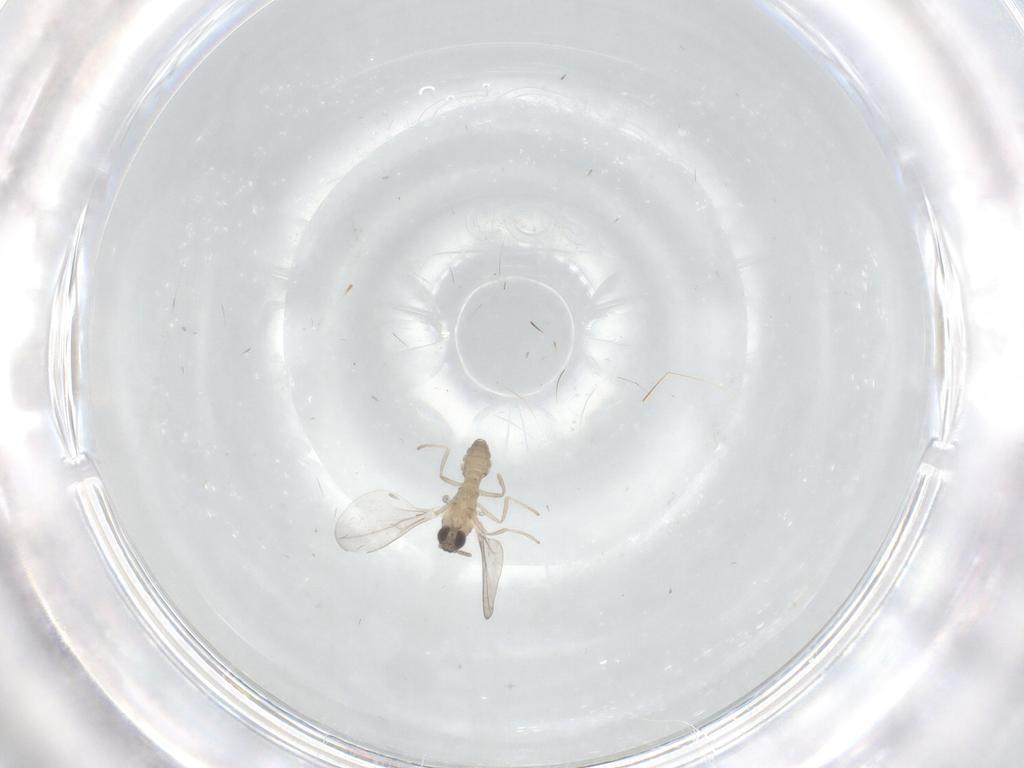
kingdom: Animalia
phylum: Arthropoda
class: Insecta
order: Diptera
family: Cecidomyiidae
